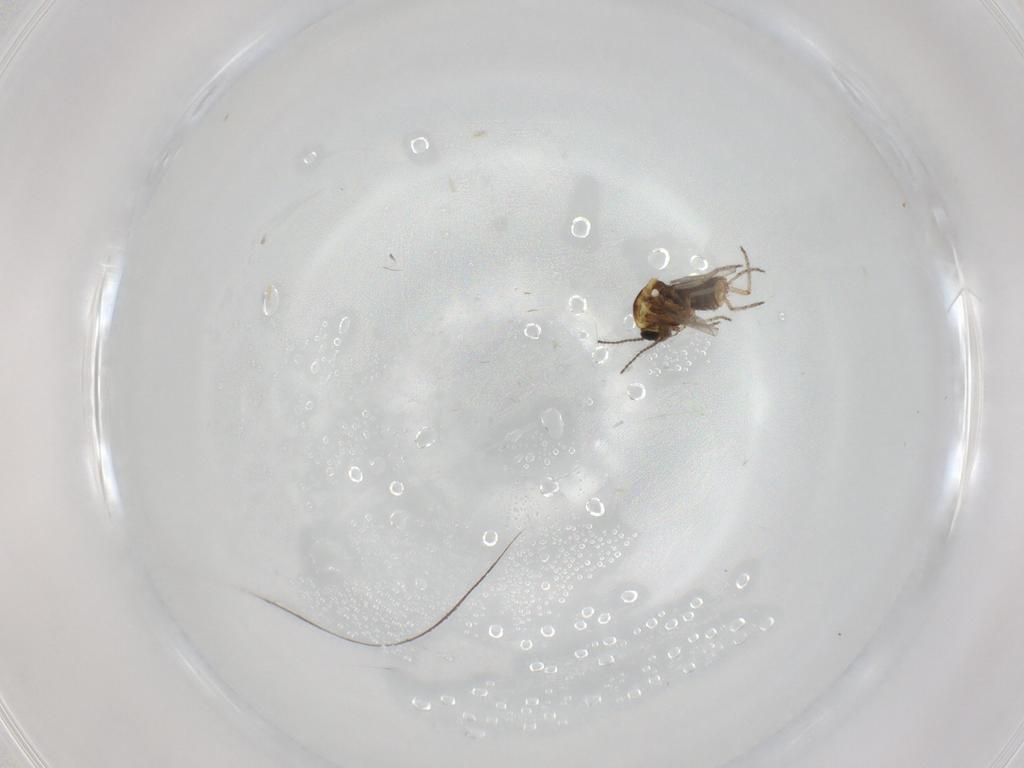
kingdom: Animalia
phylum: Arthropoda
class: Insecta
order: Diptera
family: Ceratopogonidae
